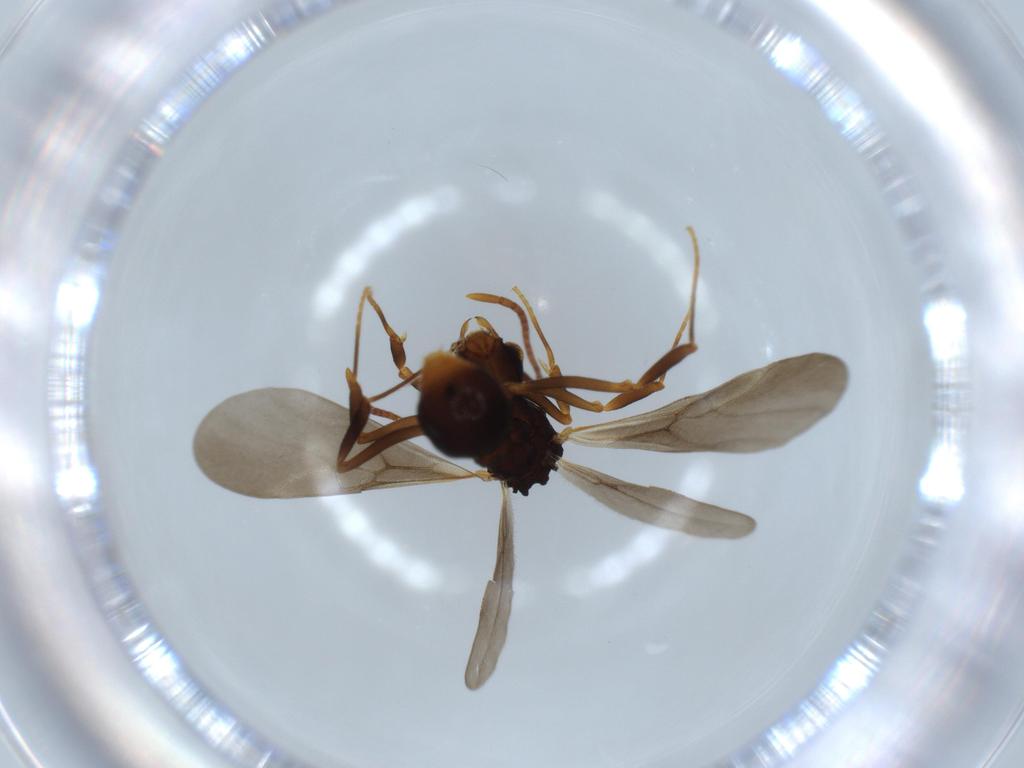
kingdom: Animalia
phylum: Arthropoda
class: Insecta
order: Hymenoptera
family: Formicidae
